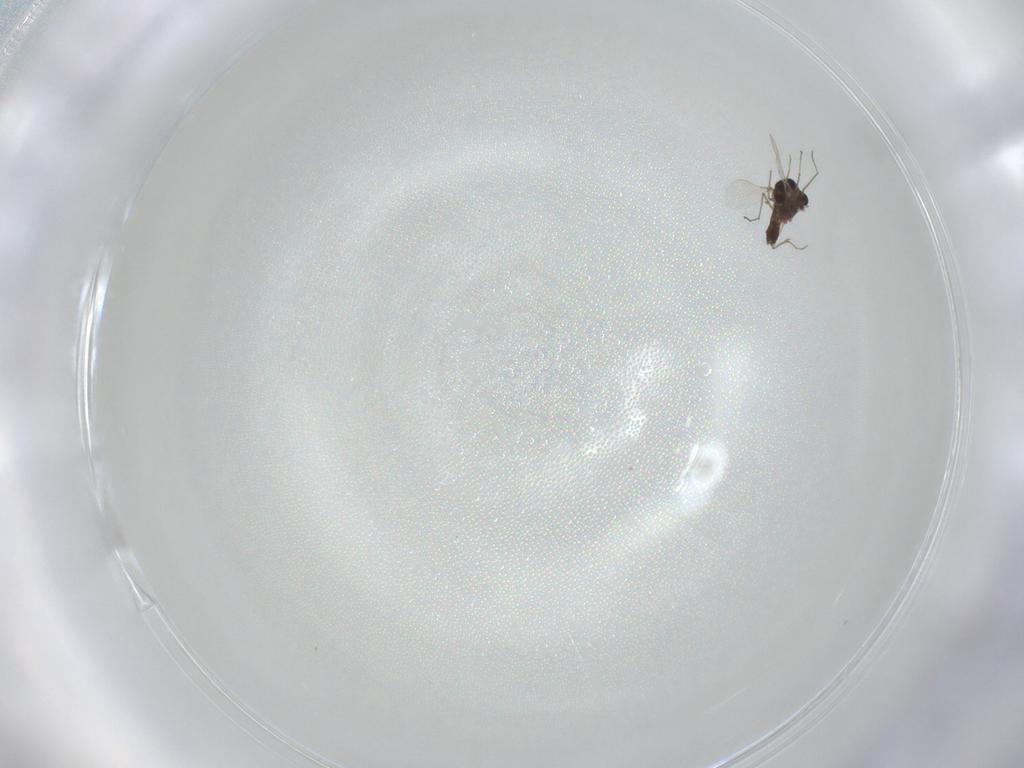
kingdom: Animalia
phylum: Arthropoda
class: Insecta
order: Diptera
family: Chironomidae
